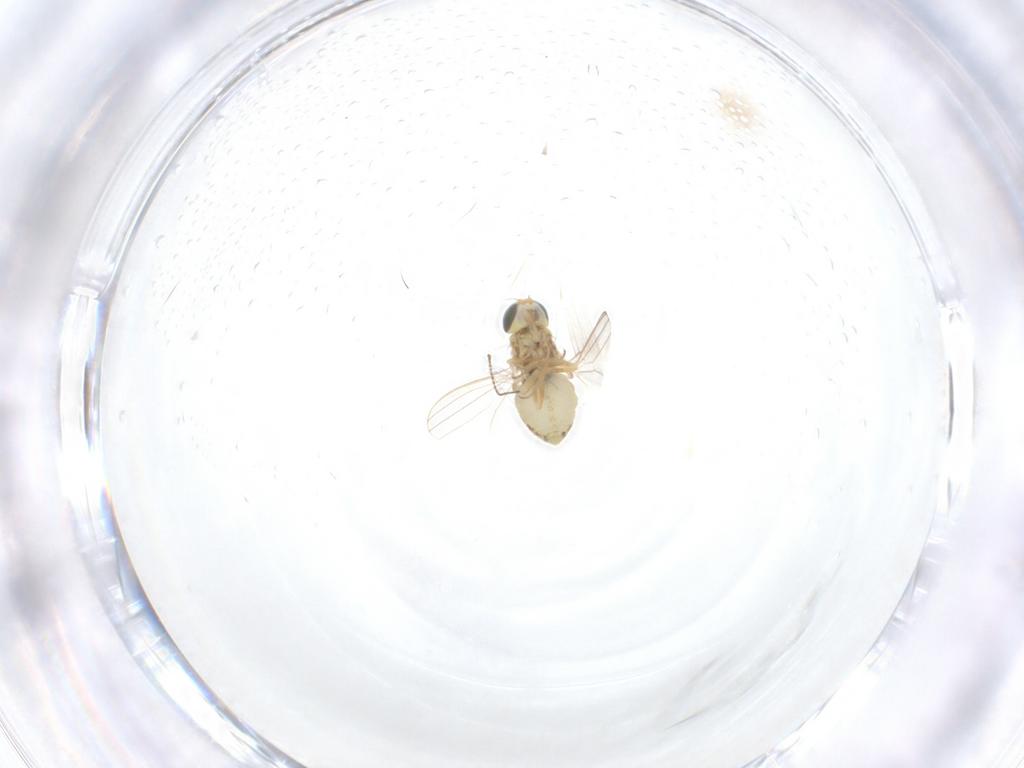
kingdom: Animalia
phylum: Arthropoda
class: Insecta
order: Diptera
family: Chyromyidae
